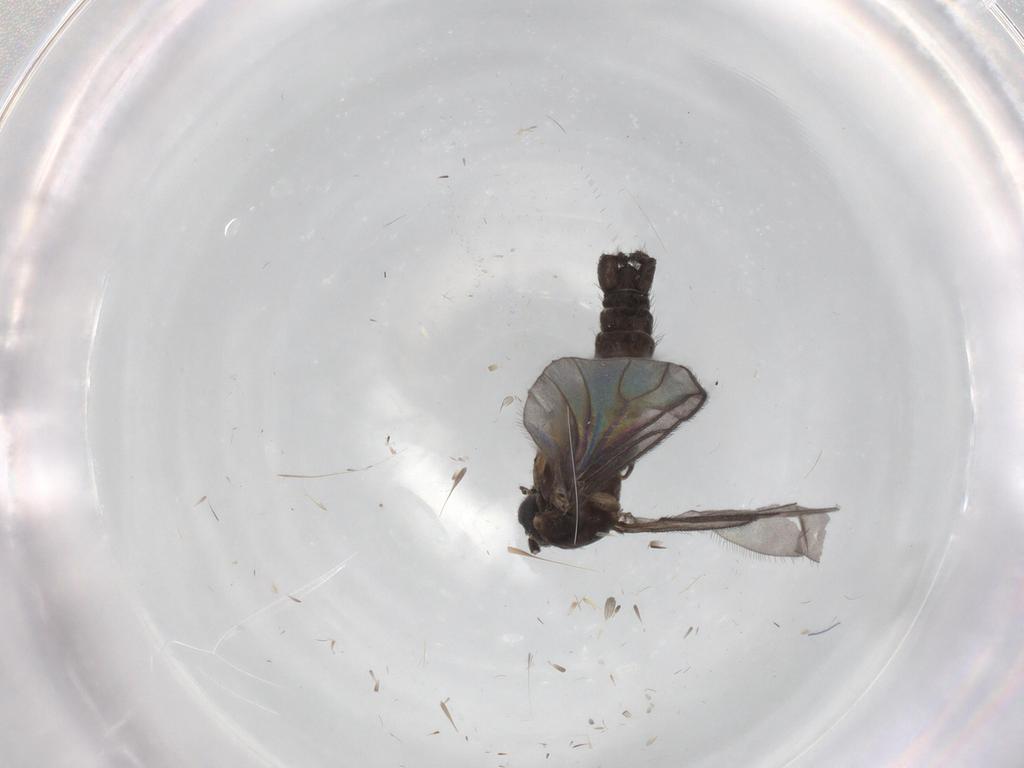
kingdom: Animalia
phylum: Arthropoda
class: Insecta
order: Diptera
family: Sciaridae
